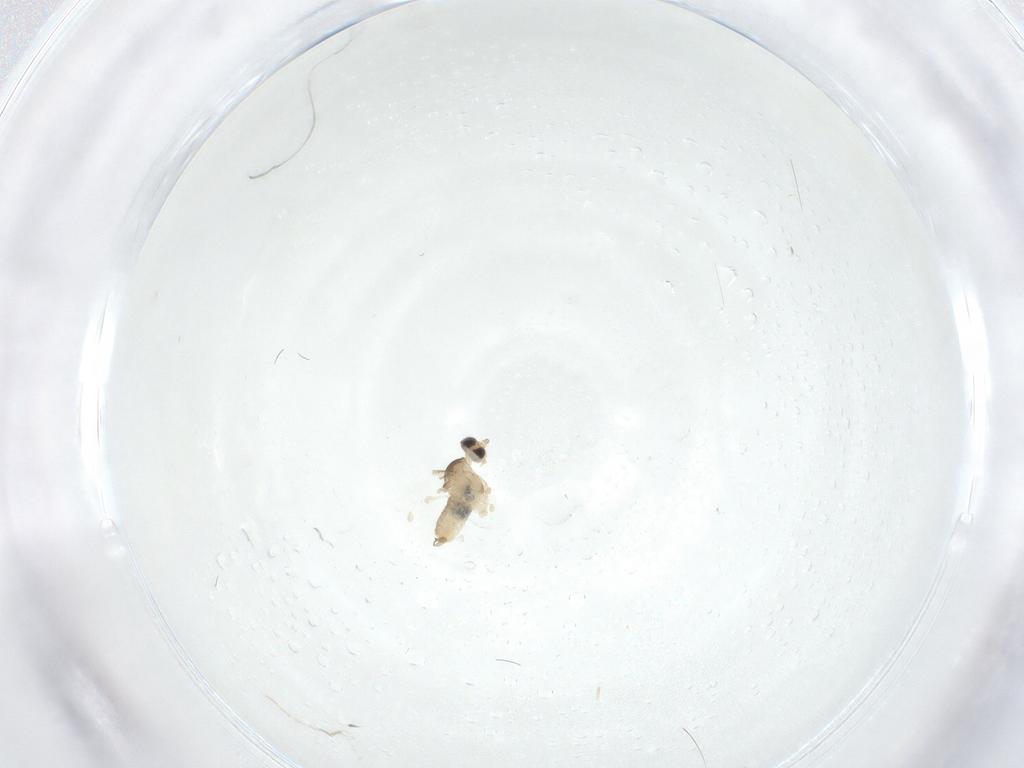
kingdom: Animalia
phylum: Arthropoda
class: Insecta
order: Diptera
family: Cecidomyiidae
